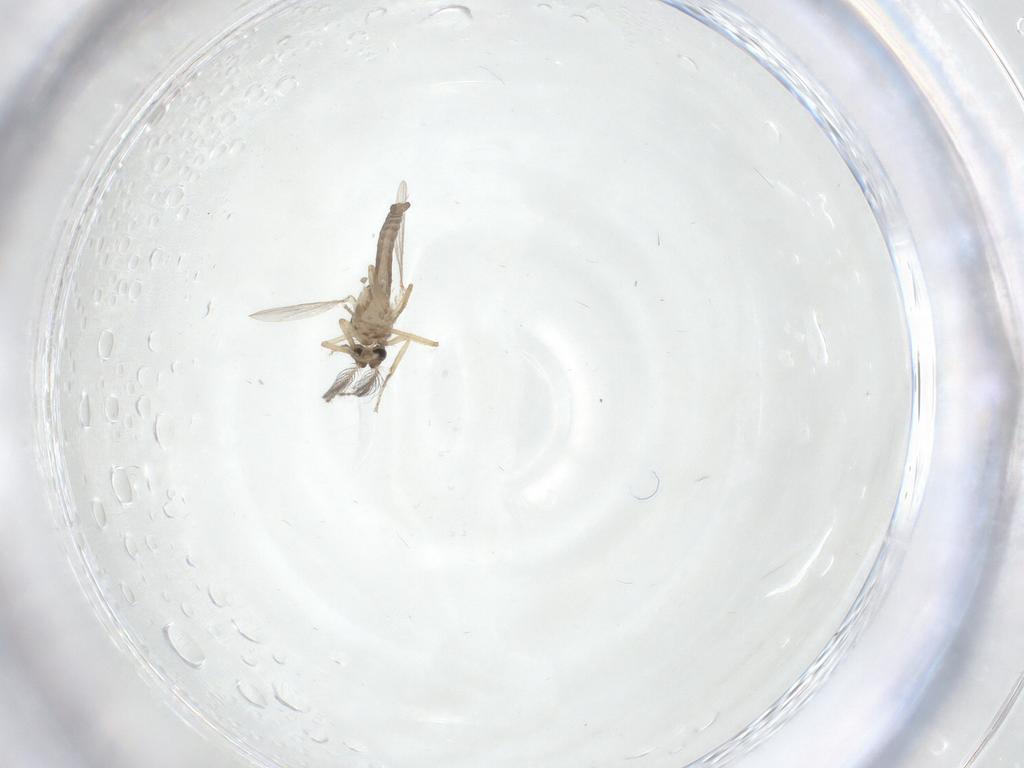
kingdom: Animalia
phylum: Arthropoda
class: Insecta
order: Diptera
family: Ceratopogonidae
